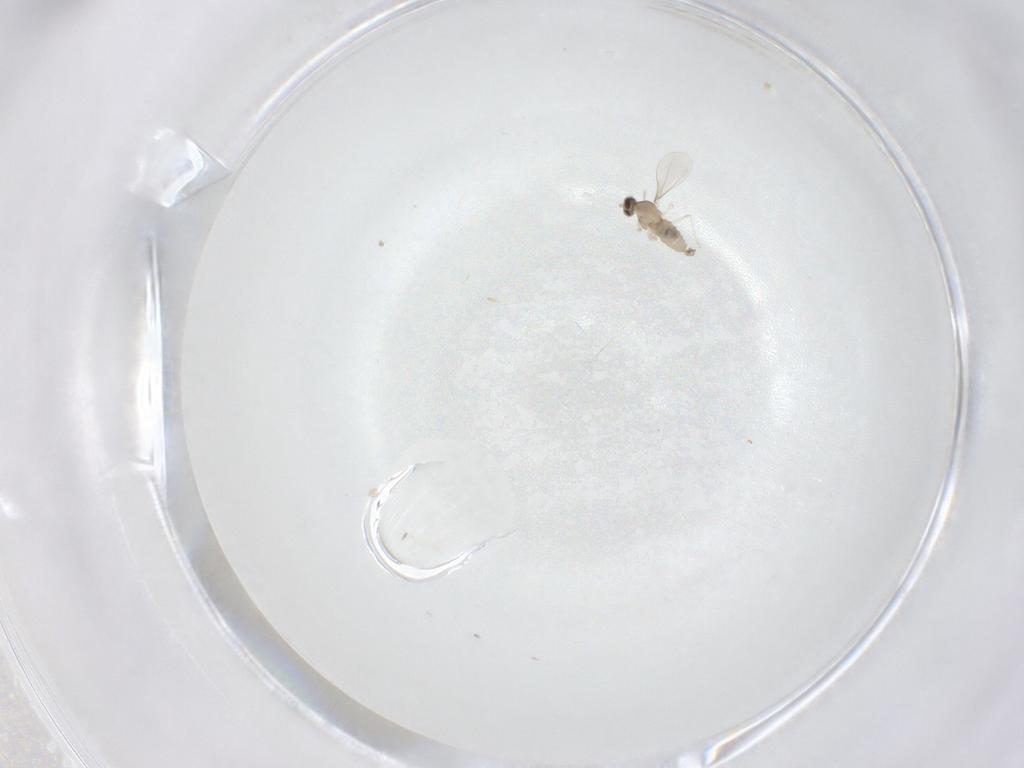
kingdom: Animalia
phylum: Arthropoda
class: Insecta
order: Diptera
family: Cecidomyiidae
